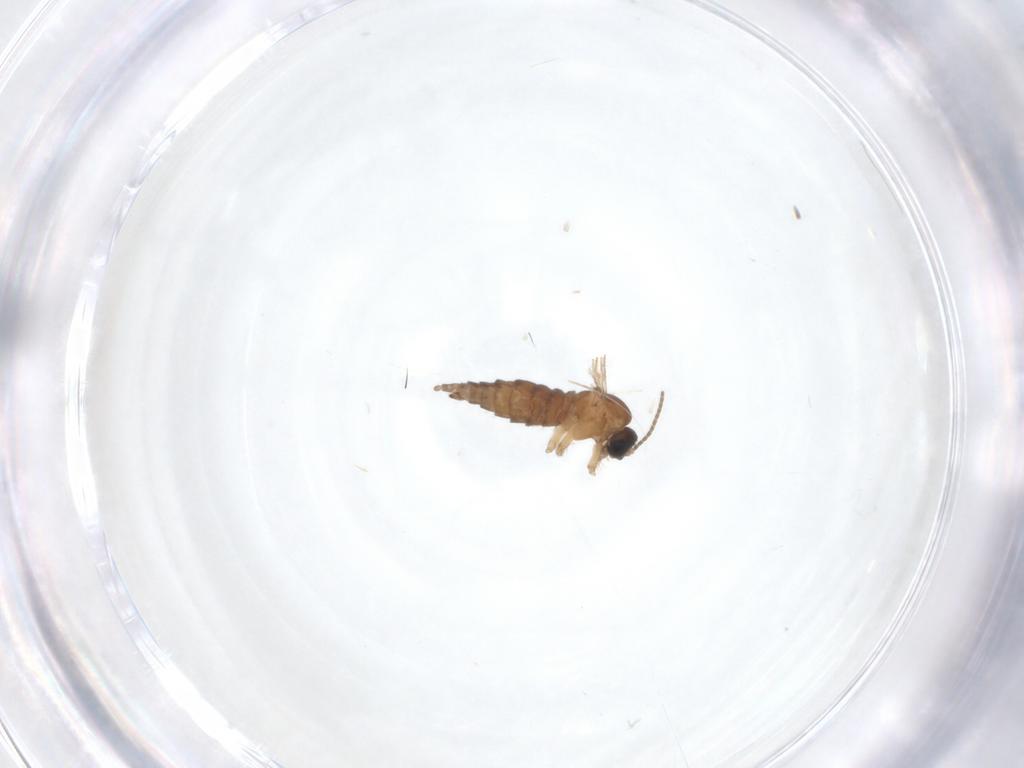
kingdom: Animalia
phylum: Arthropoda
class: Insecta
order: Diptera
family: Sciaridae
